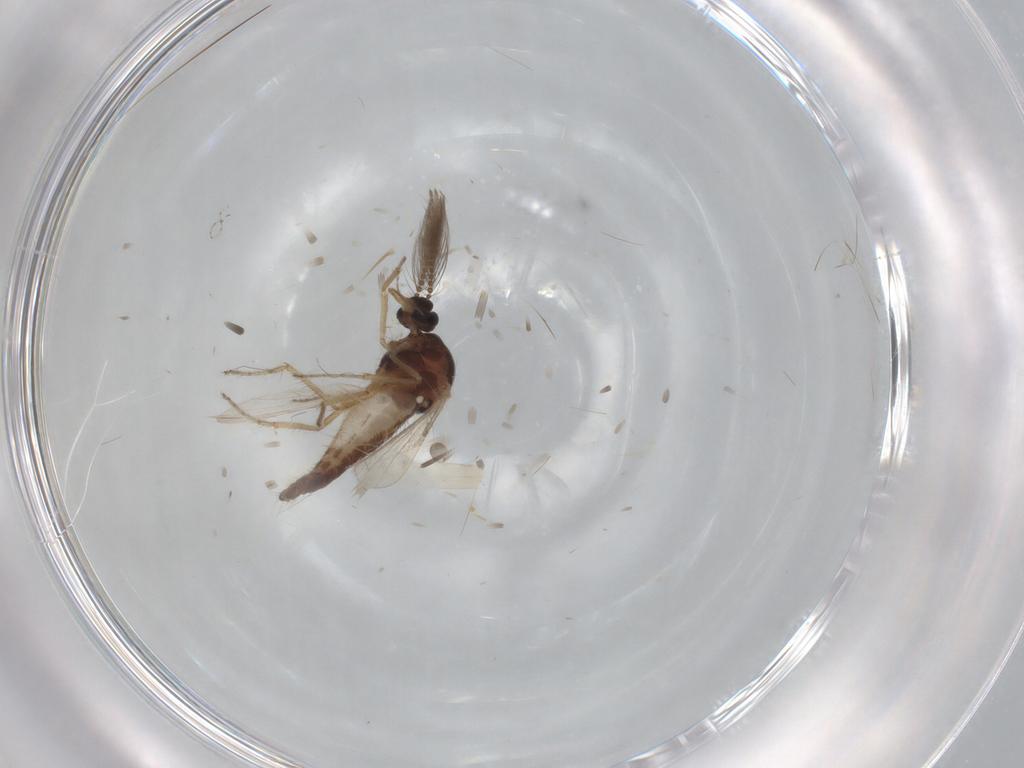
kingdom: Animalia
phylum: Arthropoda
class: Insecta
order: Diptera
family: Ceratopogonidae
